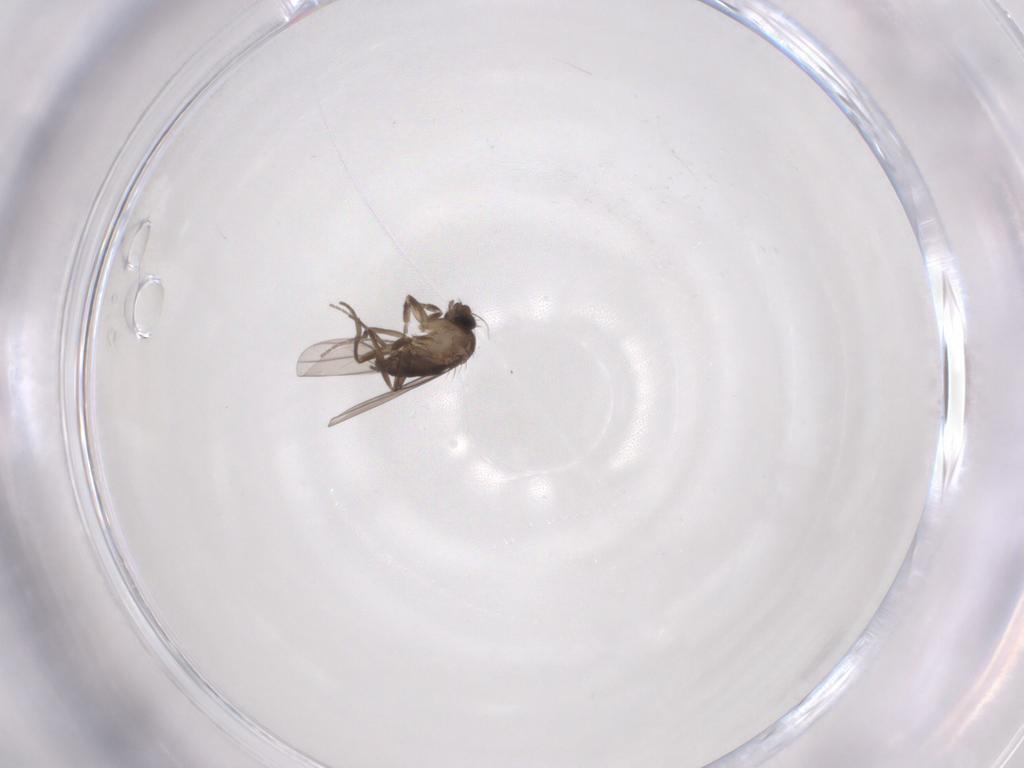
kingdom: Animalia
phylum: Arthropoda
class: Insecta
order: Diptera
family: Phoridae
